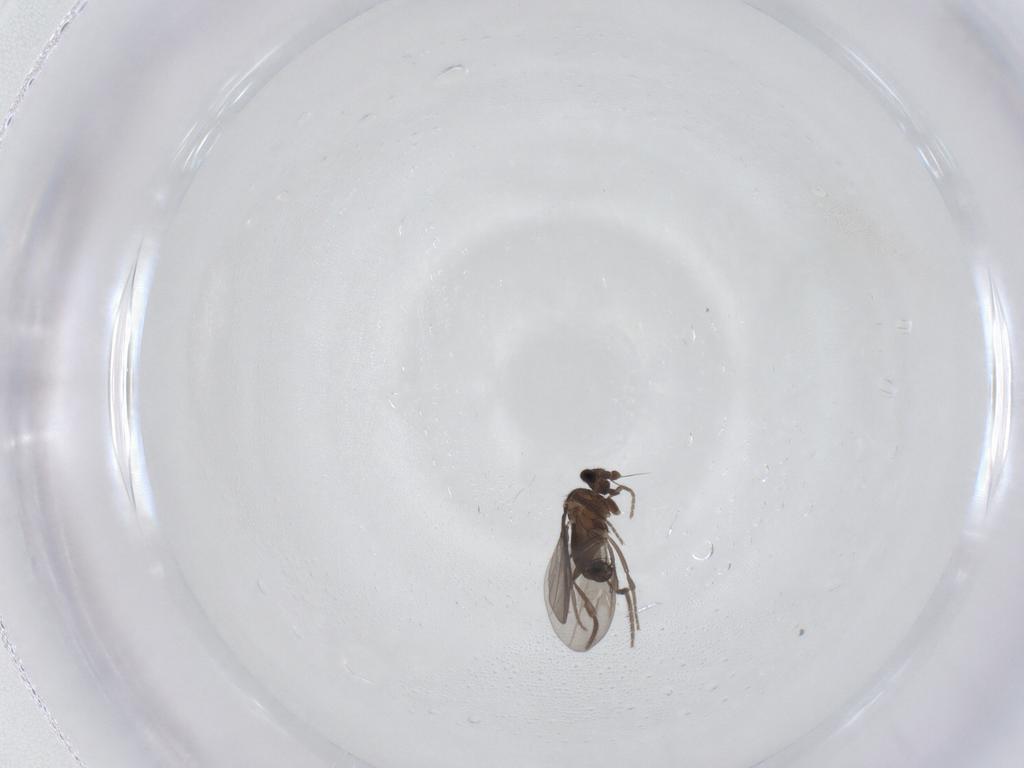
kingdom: Animalia
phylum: Arthropoda
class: Insecta
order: Diptera
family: Phoridae
